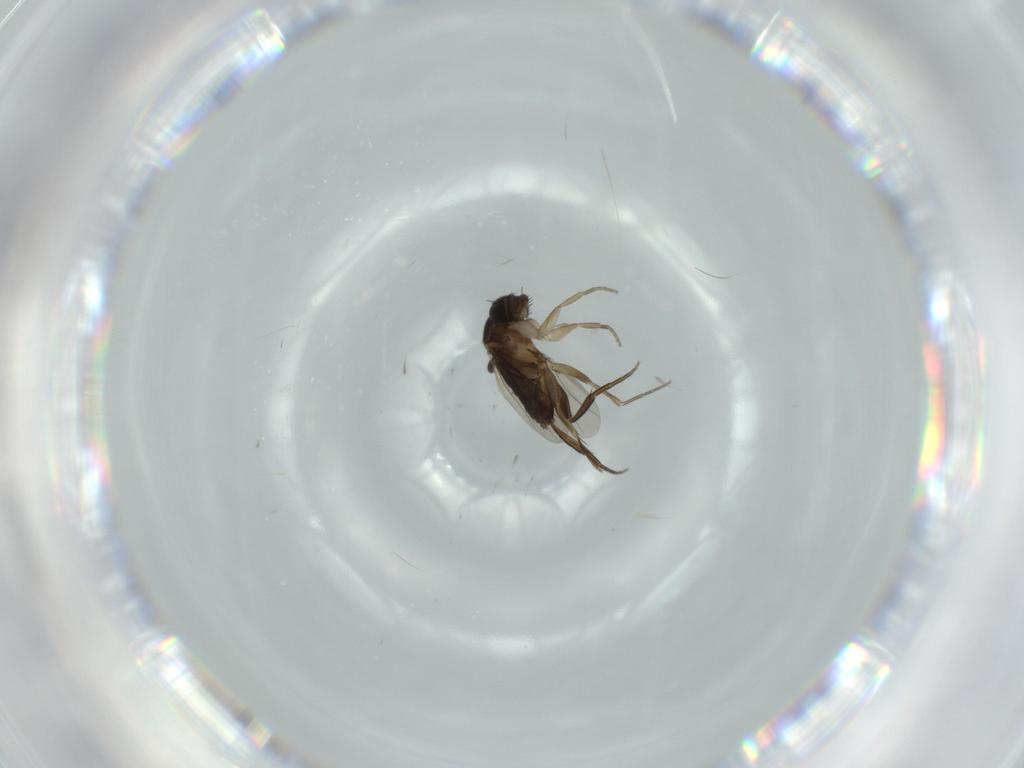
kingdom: Animalia
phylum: Arthropoda
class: Insecta
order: Diptera
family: Phoridae
